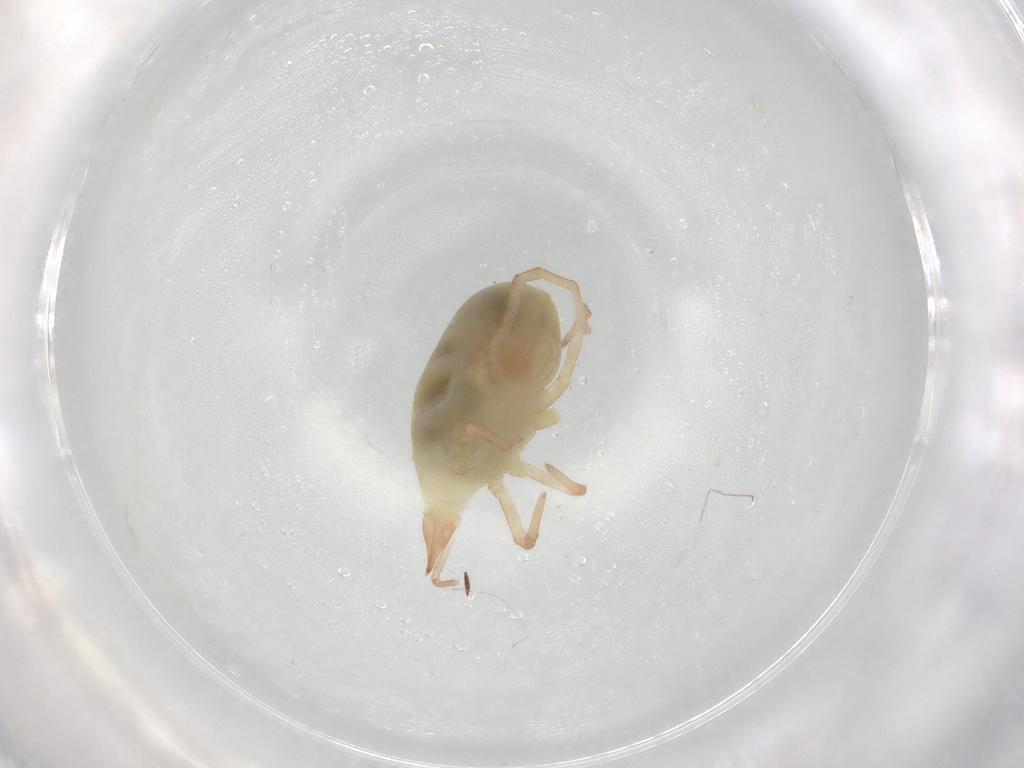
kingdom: Animalia
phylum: Arthropoda
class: Arachnida
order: Trombidiformes
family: Bdellidae
